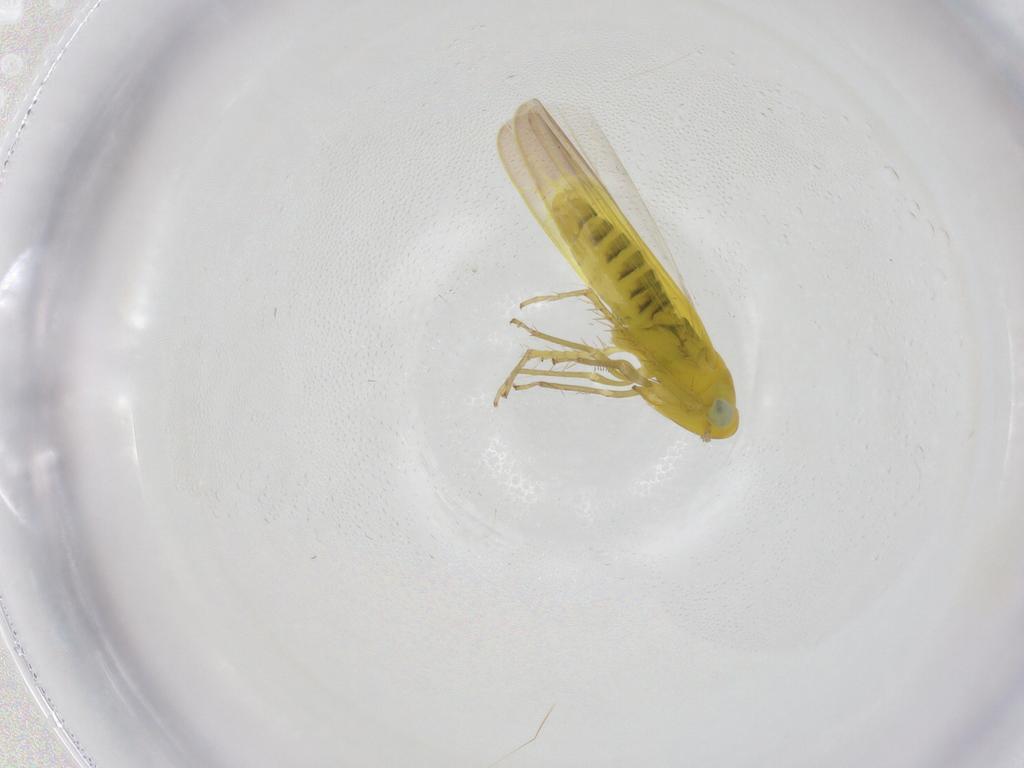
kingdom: Animalia
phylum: Arthropoda
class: Insecta
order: Hemiptera
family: Cicadellidae
